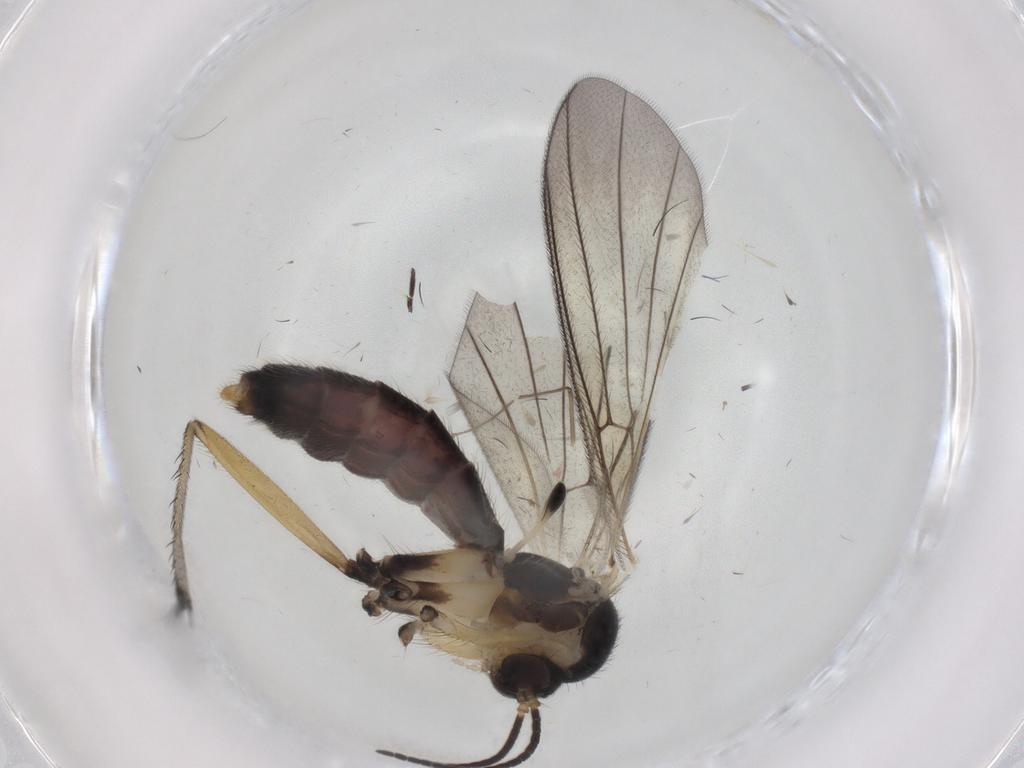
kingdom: Animalia
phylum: Arthropoda
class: Insecta
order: Diptera
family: Chironomidae
